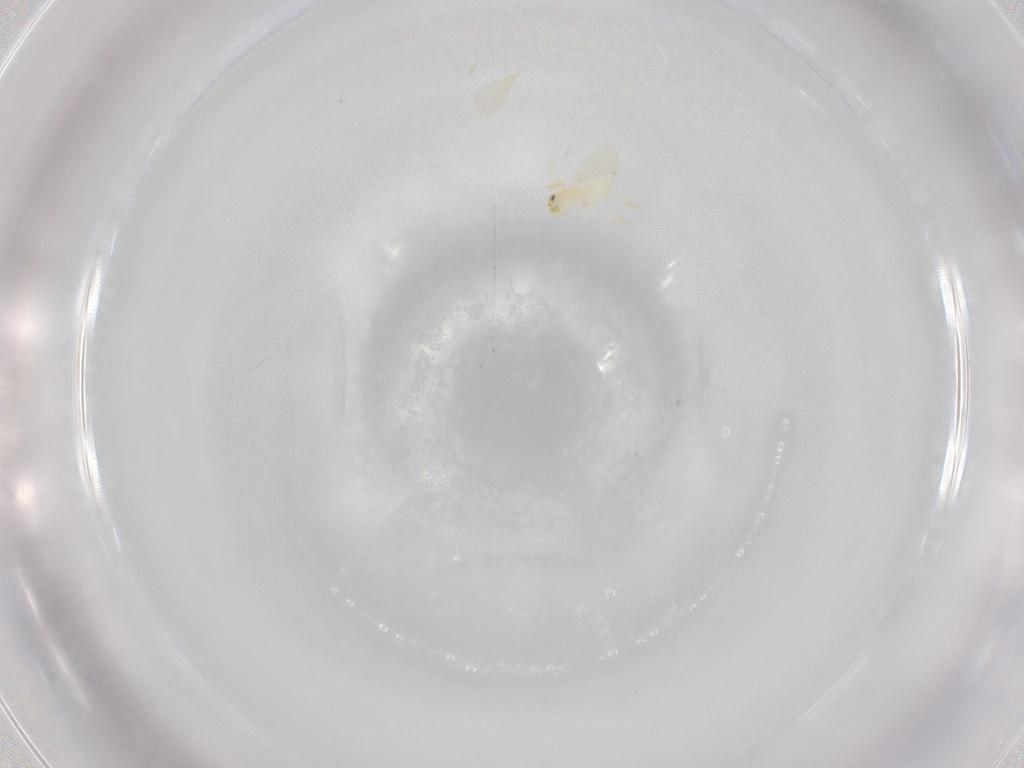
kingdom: Animalia
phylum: Arthropoda
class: Insecta
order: Hymenoptera
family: Aphelinidae
